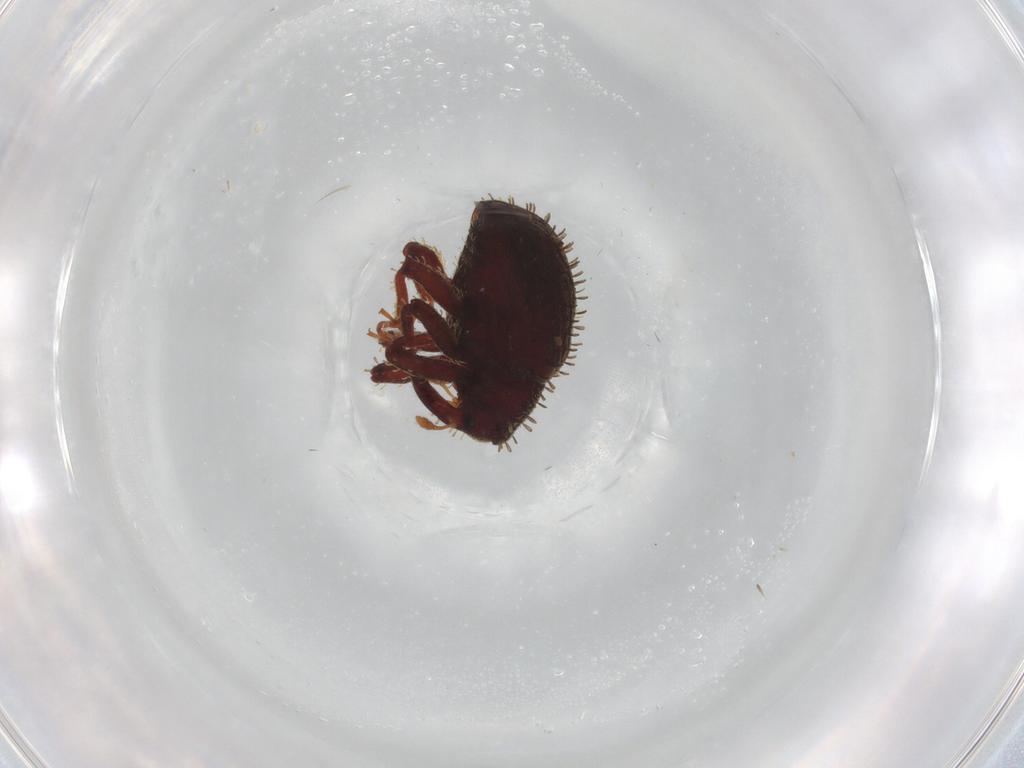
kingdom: Animalia
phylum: Arthropoda
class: Insecta
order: Coleoptera
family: Curculionidae
